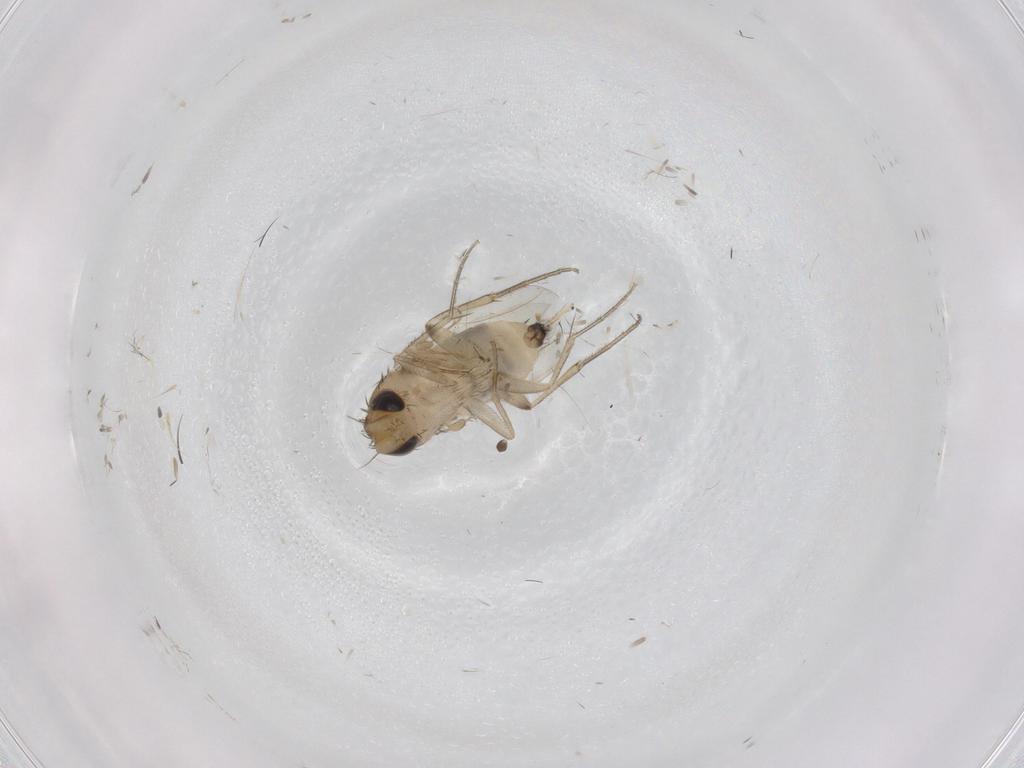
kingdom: Animalia
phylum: Arthropoda
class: Insecta
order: Diptera
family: Phoridae
